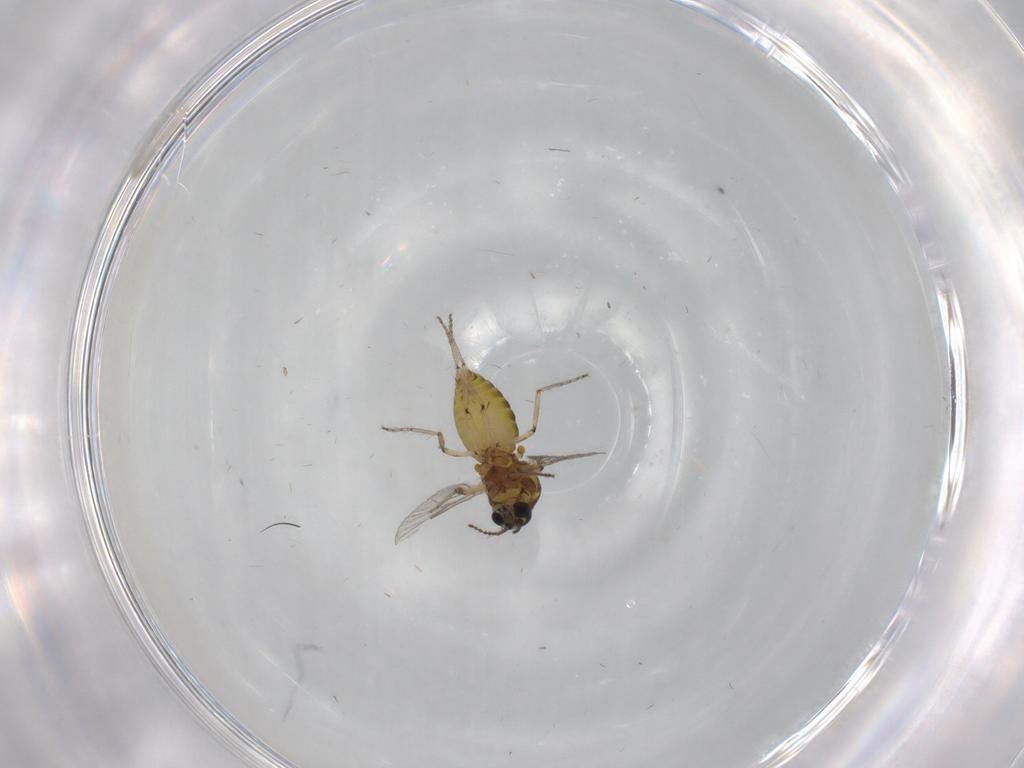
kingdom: Animalia
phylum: Arthropoda
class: Insecta
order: Diptera
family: Ceratopogonidae
